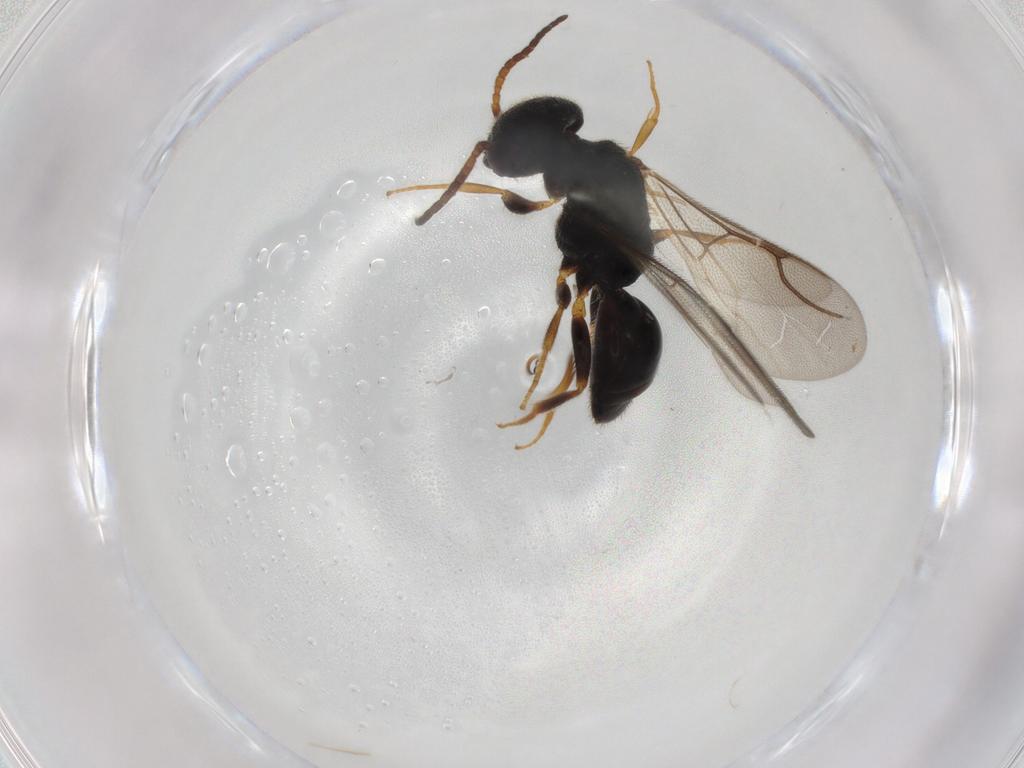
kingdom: Animalia
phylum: Arthropoda
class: Insecta
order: Hymenoptera
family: Bethylidae
